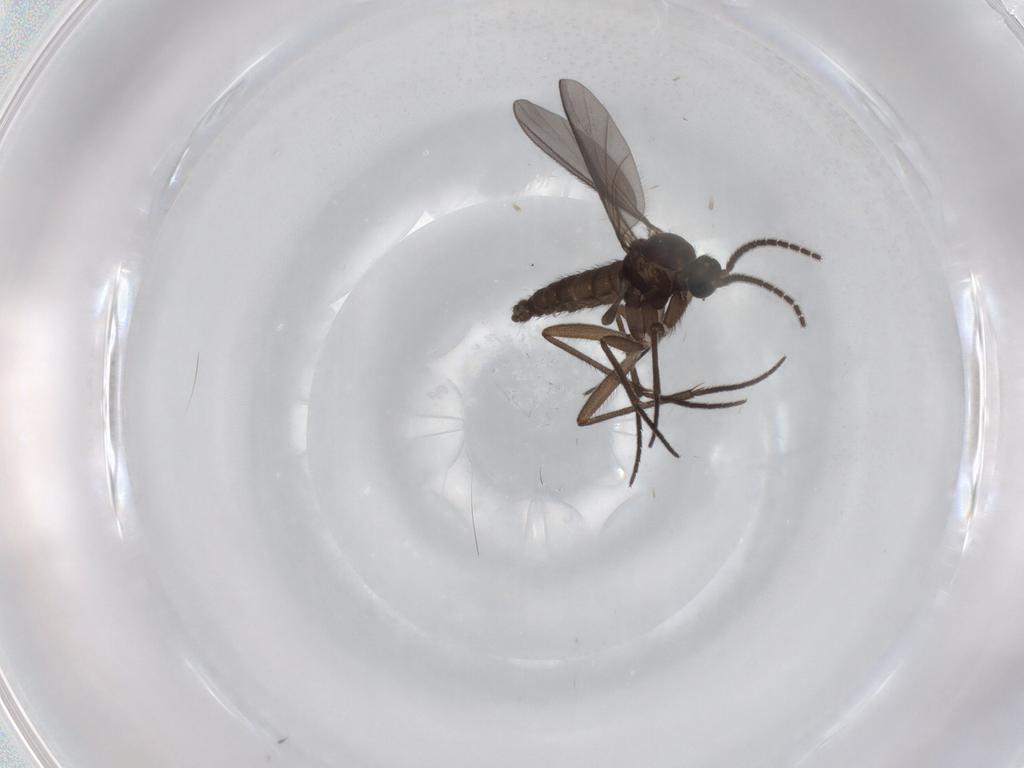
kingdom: Animalia
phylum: Arthropoda
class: Insecta
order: Diptera
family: Sciaridae
